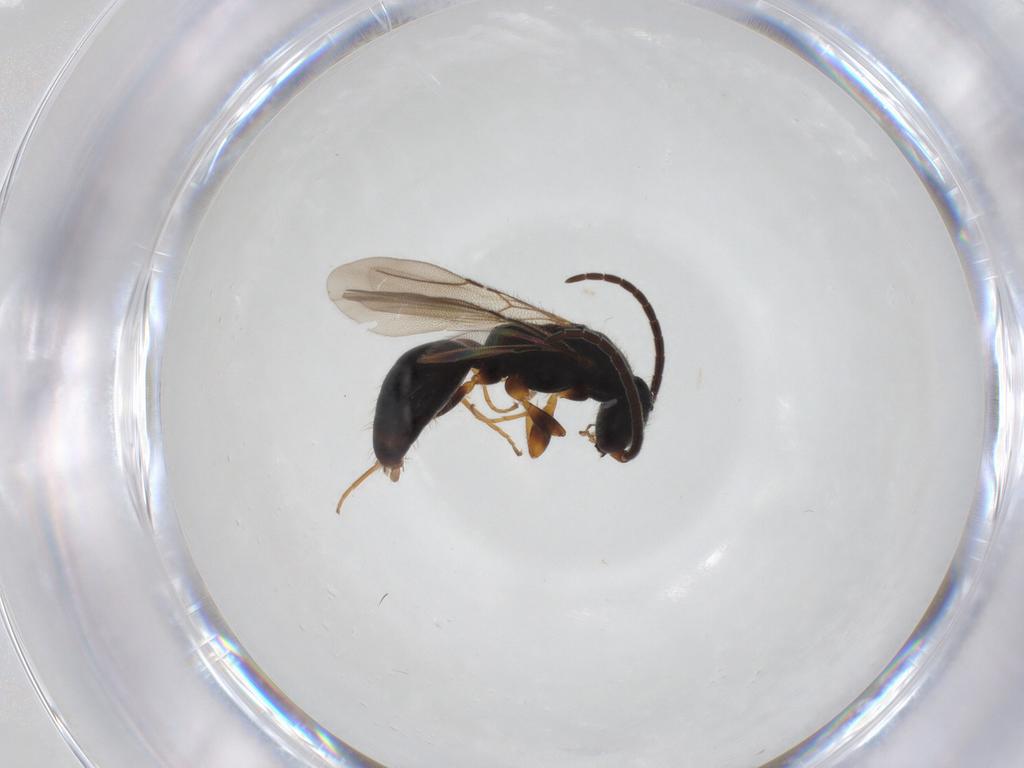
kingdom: Animalia
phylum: Arthropoda
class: Insecta
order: Hymenoptera
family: Bethylidae
